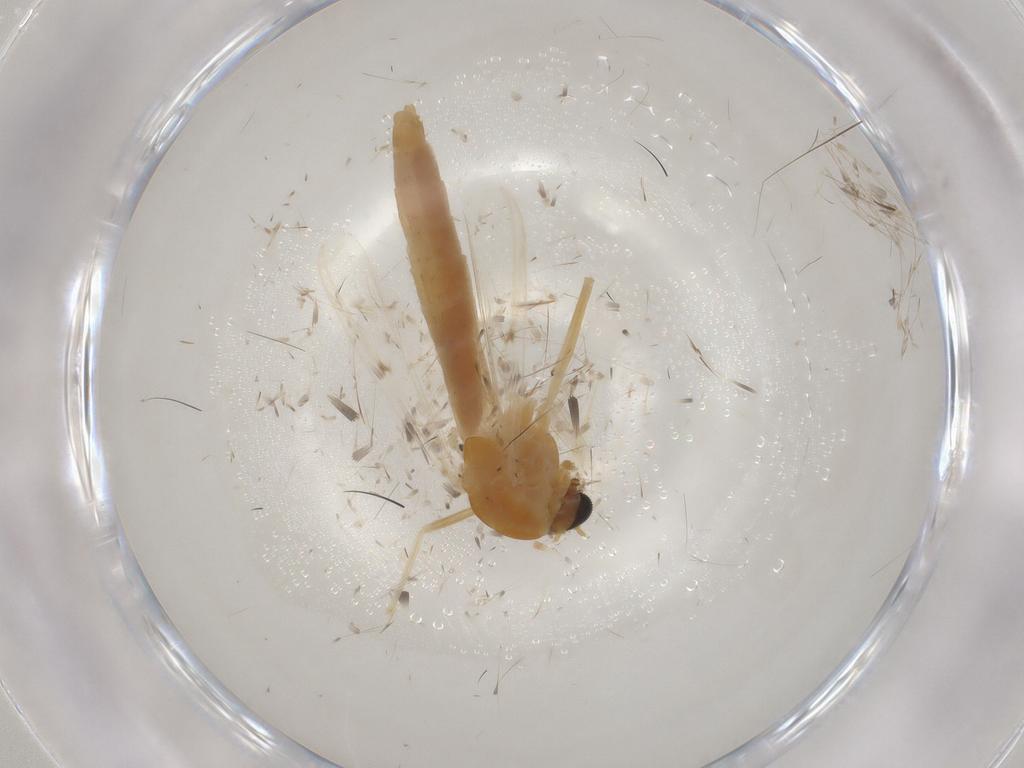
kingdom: Animalia
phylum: Arthropoda
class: Insecta
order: Diptera
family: Chironomidae
